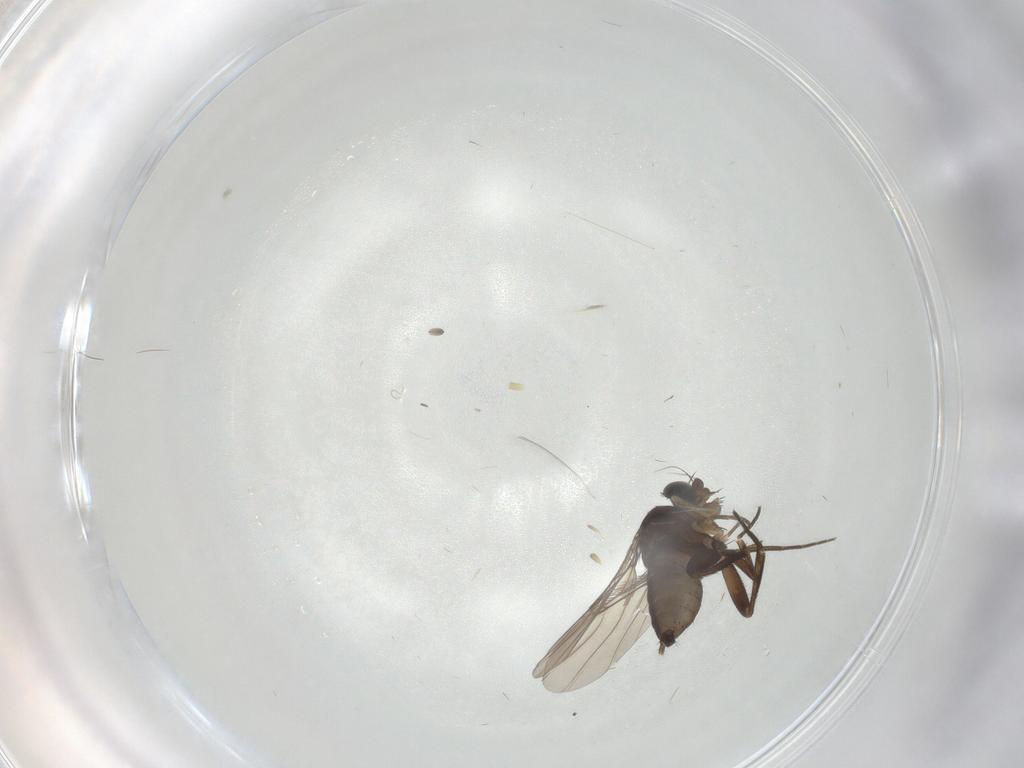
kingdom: Animalia
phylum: Arthropoda
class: Insecta
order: Diptera
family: Phoridae
